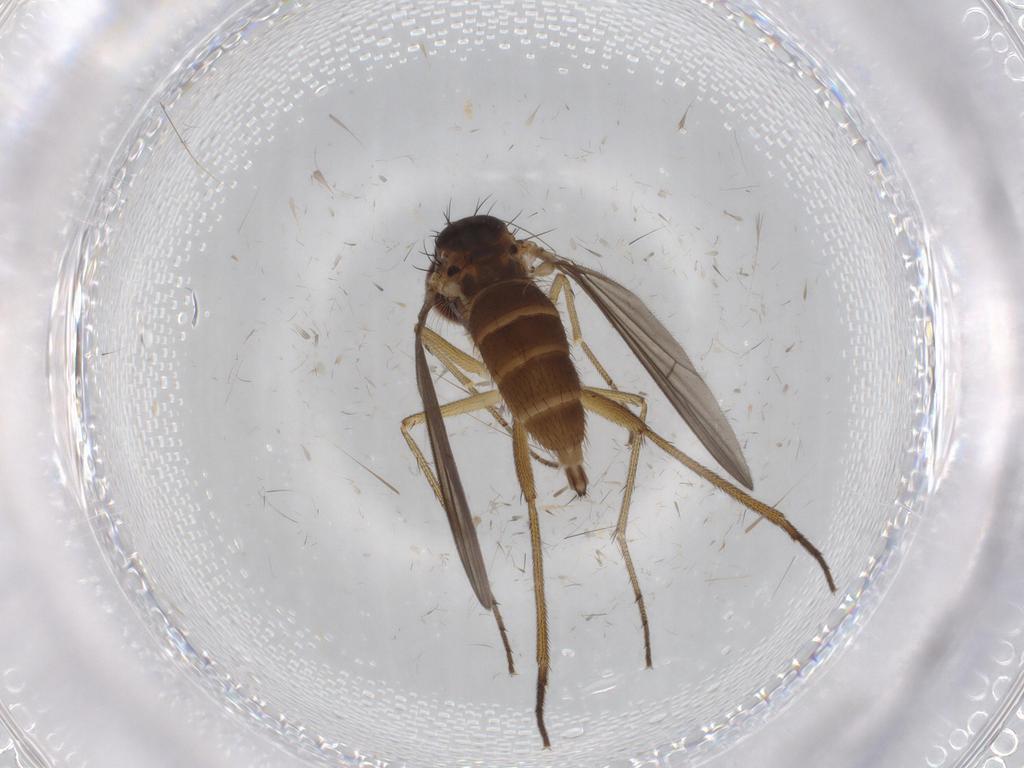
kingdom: Animalia
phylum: Arthropoda
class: Insecta
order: Diptera
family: Dolichopodidae
